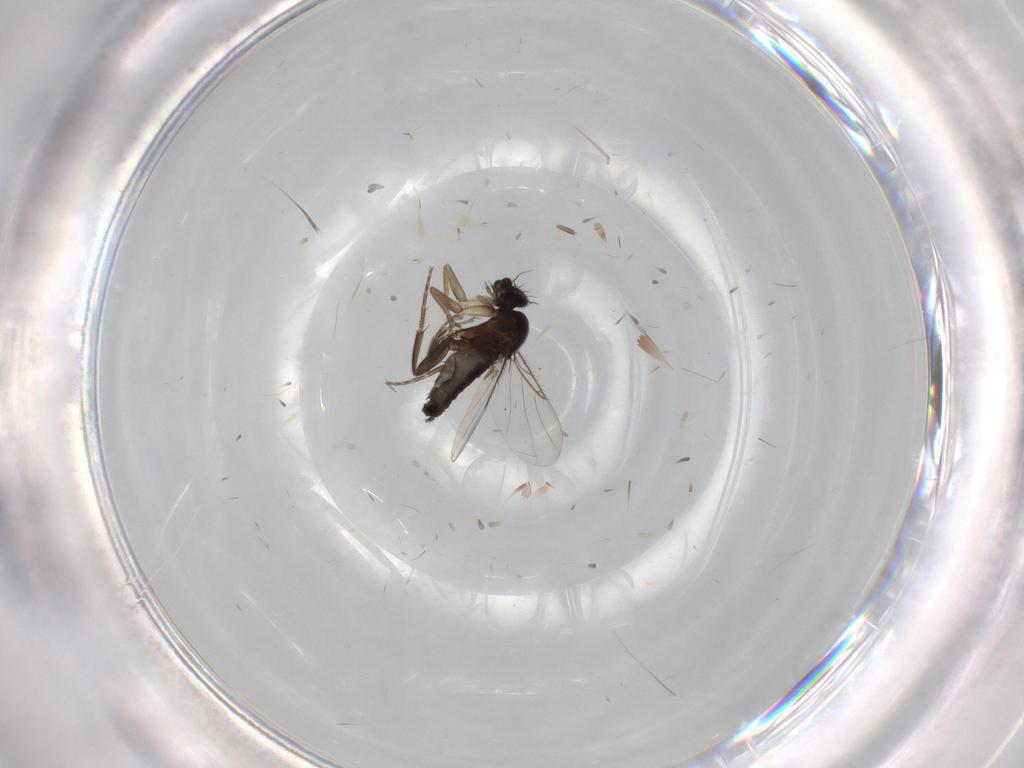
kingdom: Animalia
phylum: Arthropoda
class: Insecta
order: Diptera
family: Phoridae
